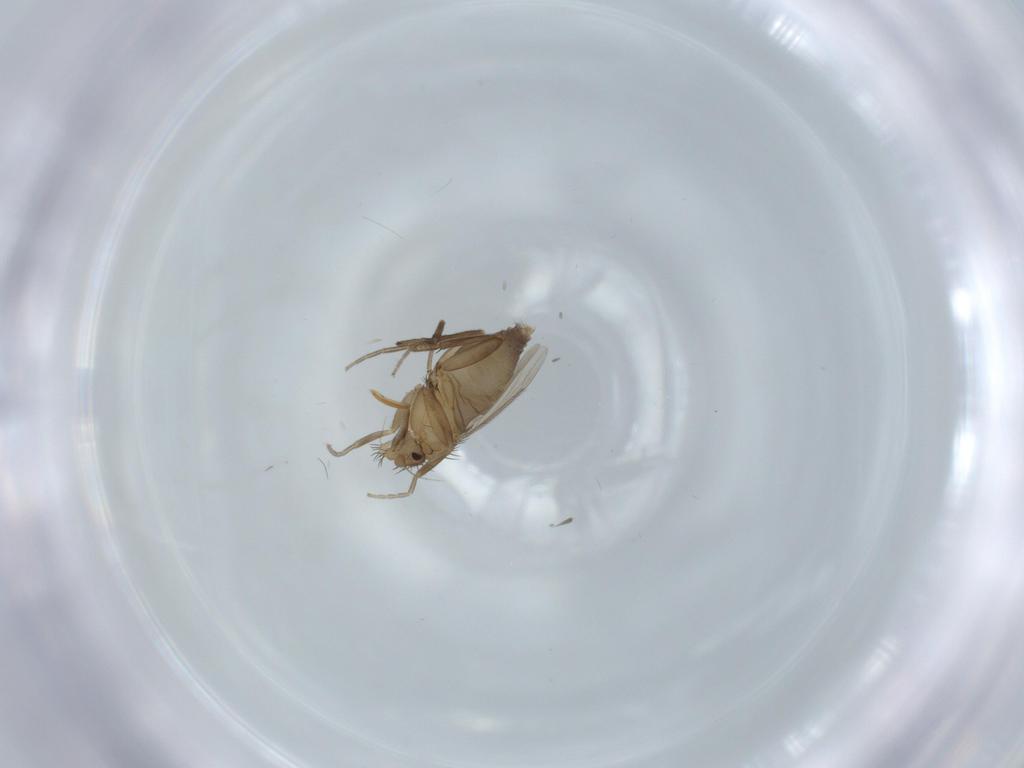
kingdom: Animalia
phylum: Arthropoda
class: Insecta
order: Diptera
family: Phoridae
